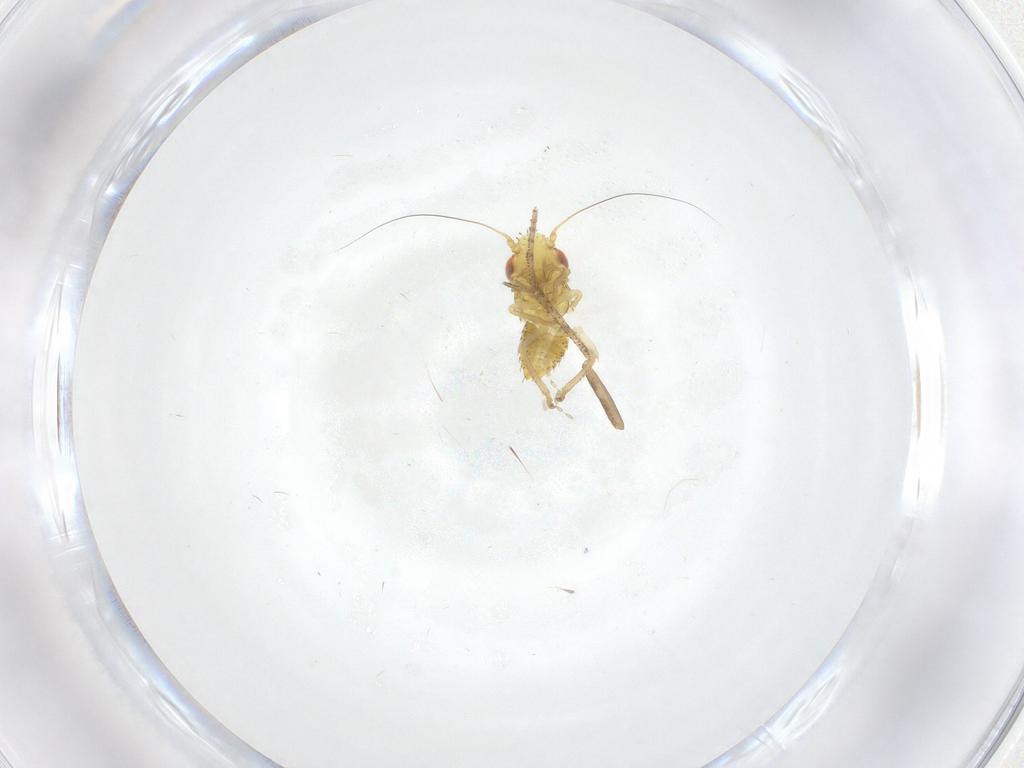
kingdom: Animalia
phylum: Arthropoda
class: Insecta
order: Hemiptera
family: Cicadellidae
